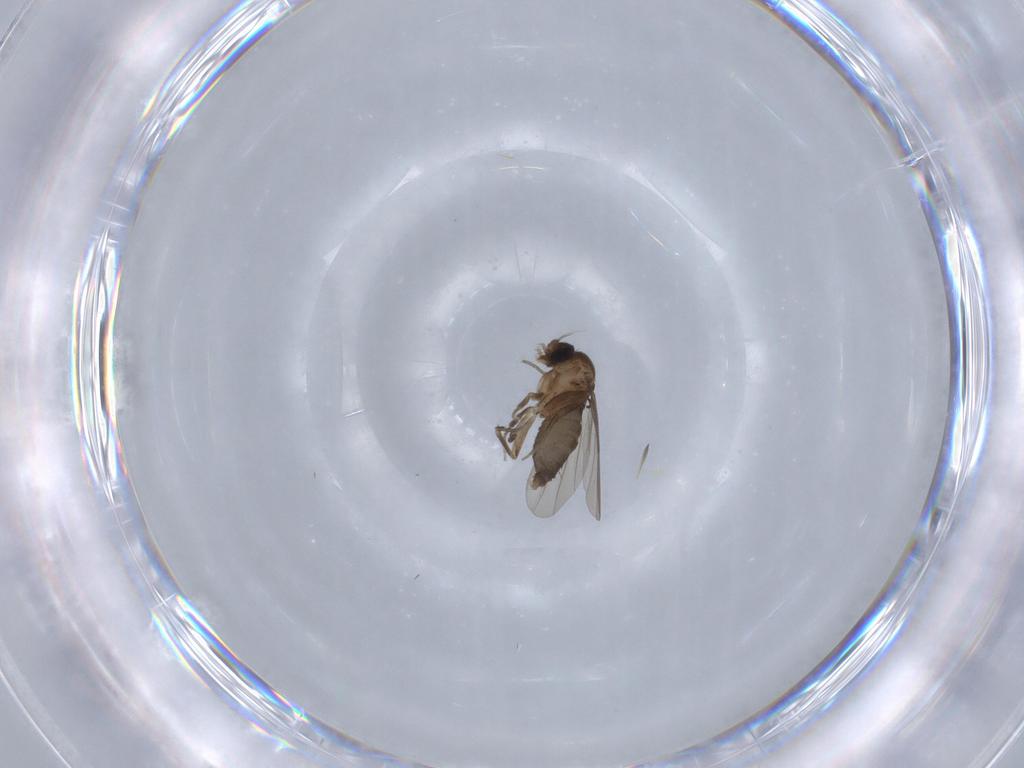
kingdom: Animalia
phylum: Arthropoda
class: Insecta
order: Diptera
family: Phoridae
